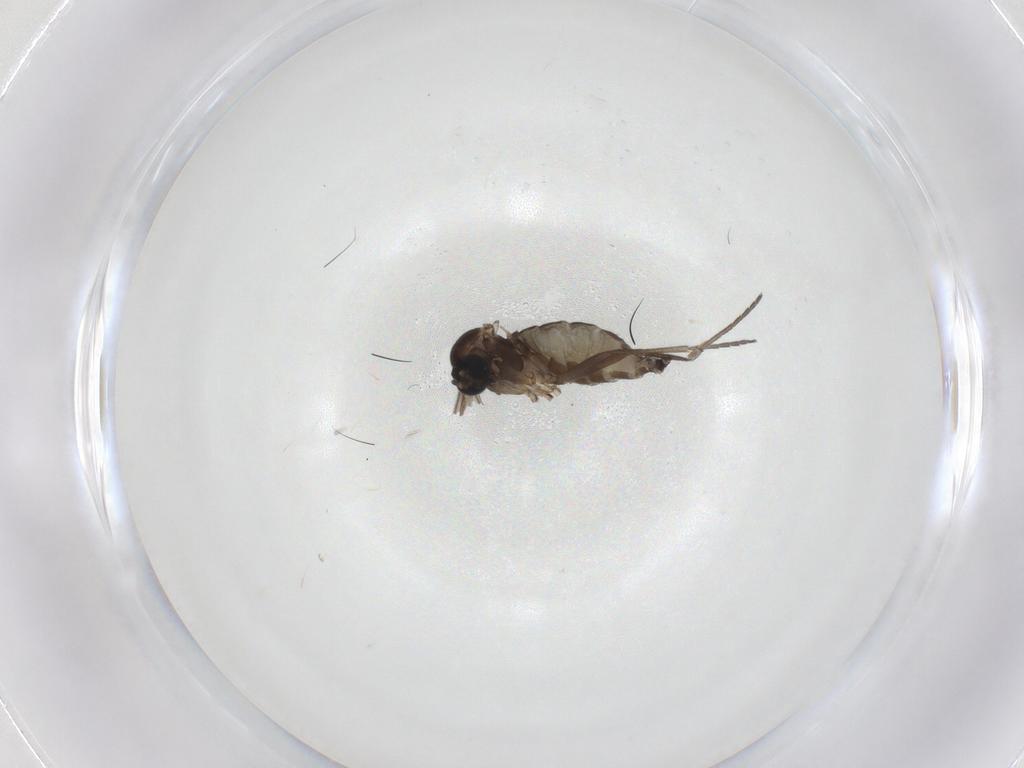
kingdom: Animalia
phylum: Arthropoda
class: Insecta
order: Diptera
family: Sciaridae
